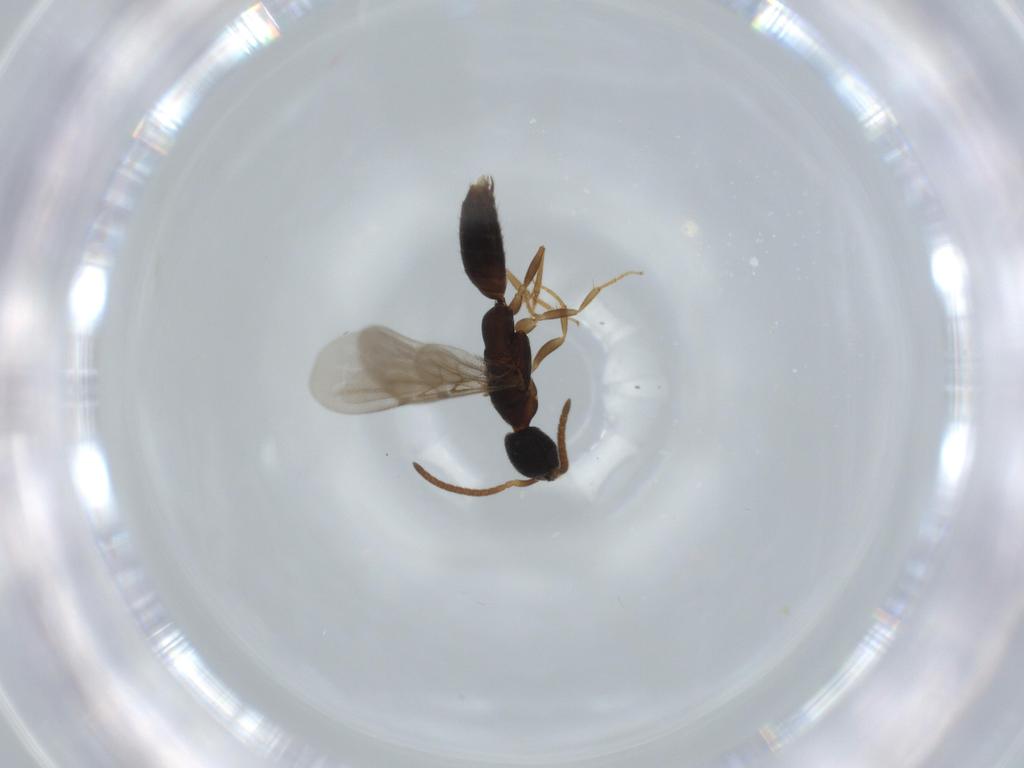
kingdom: Animalia
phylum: Arthropoda
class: Insecta
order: Hymenoptera
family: Bethylidae
